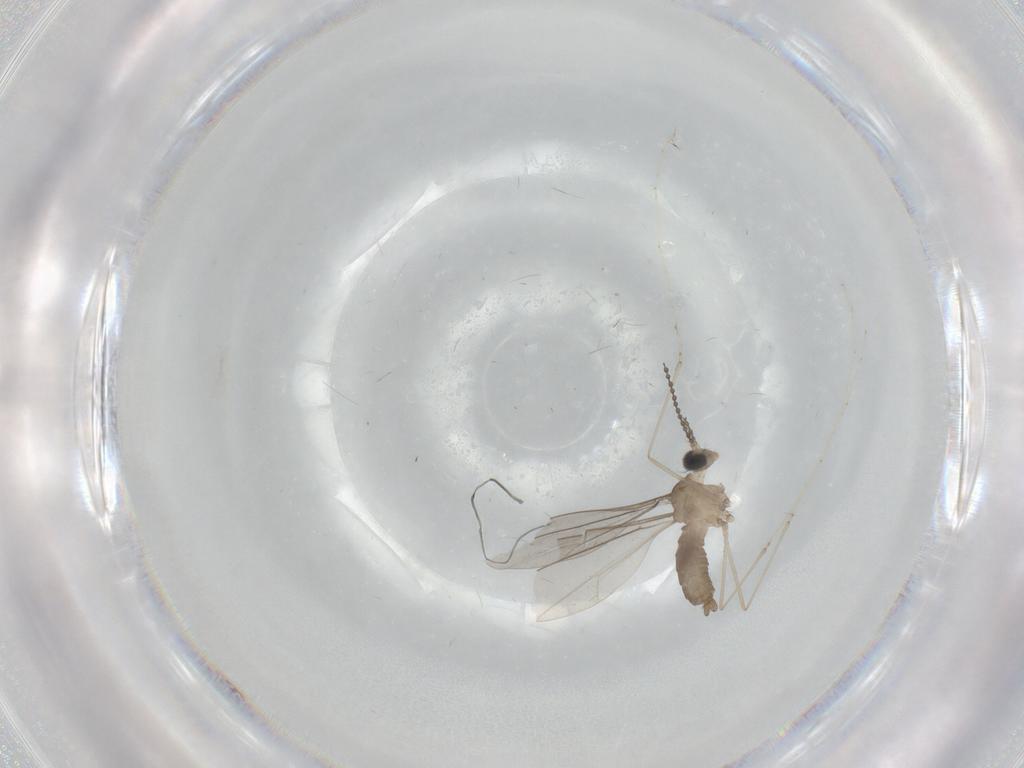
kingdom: Animalia
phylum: Arthropoda
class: Insecta
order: Diptera
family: Cecidomyiidae
